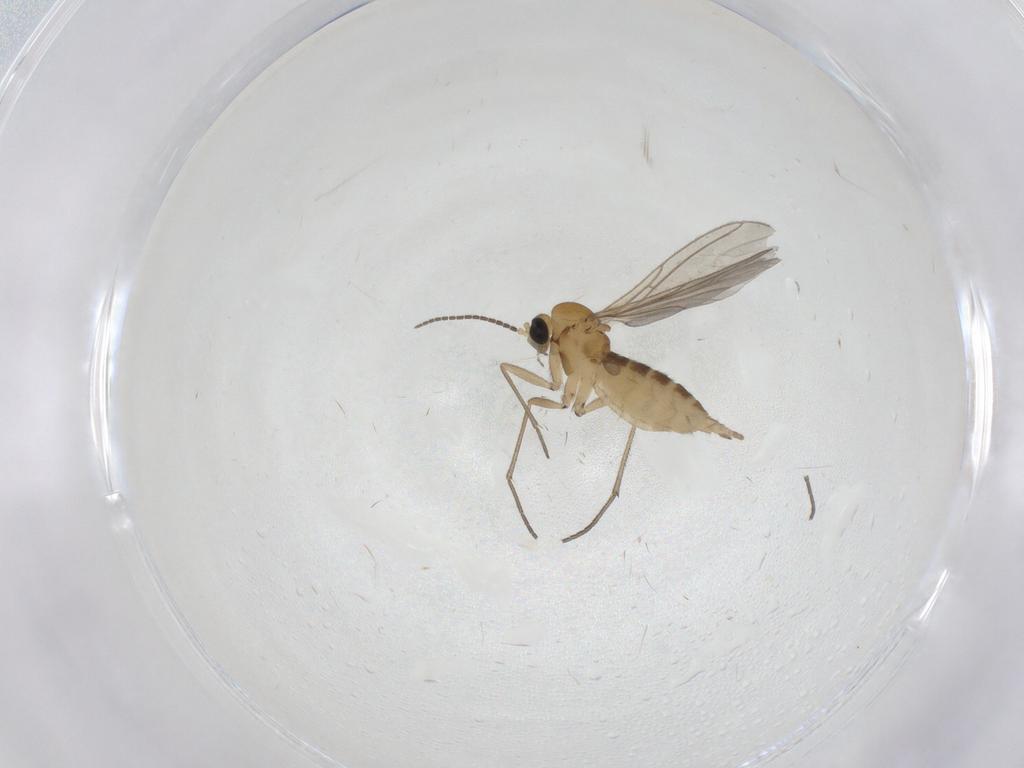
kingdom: Animalia
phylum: Arthropoda
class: Insecta
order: Diptera
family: Sciaridae
